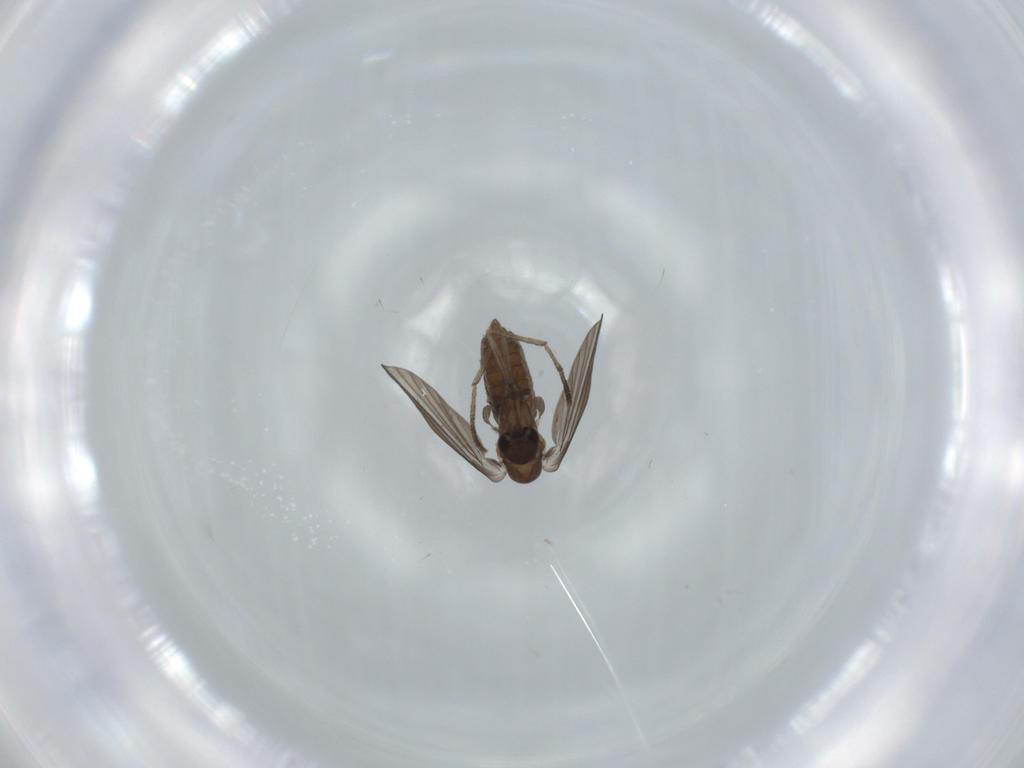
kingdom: Animalia
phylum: Arthropoda
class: Insecta
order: Diptera
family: Psychodidae
